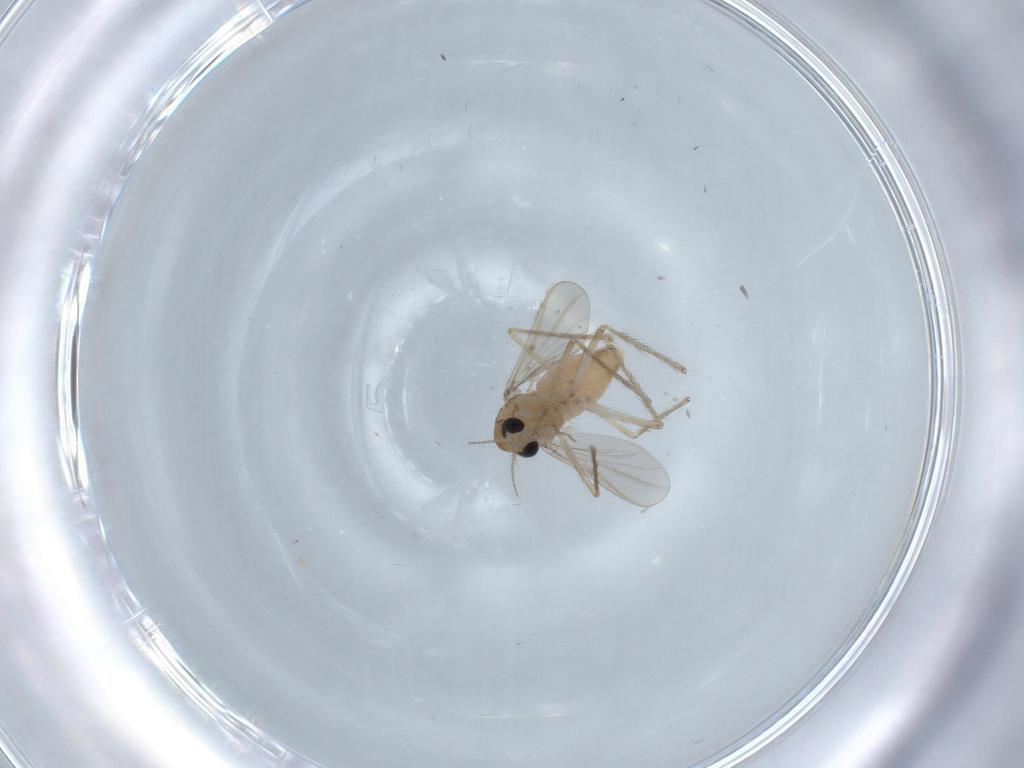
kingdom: Animalia
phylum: Arthropoda
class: Insecta
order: Diptera
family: Chironomidae
